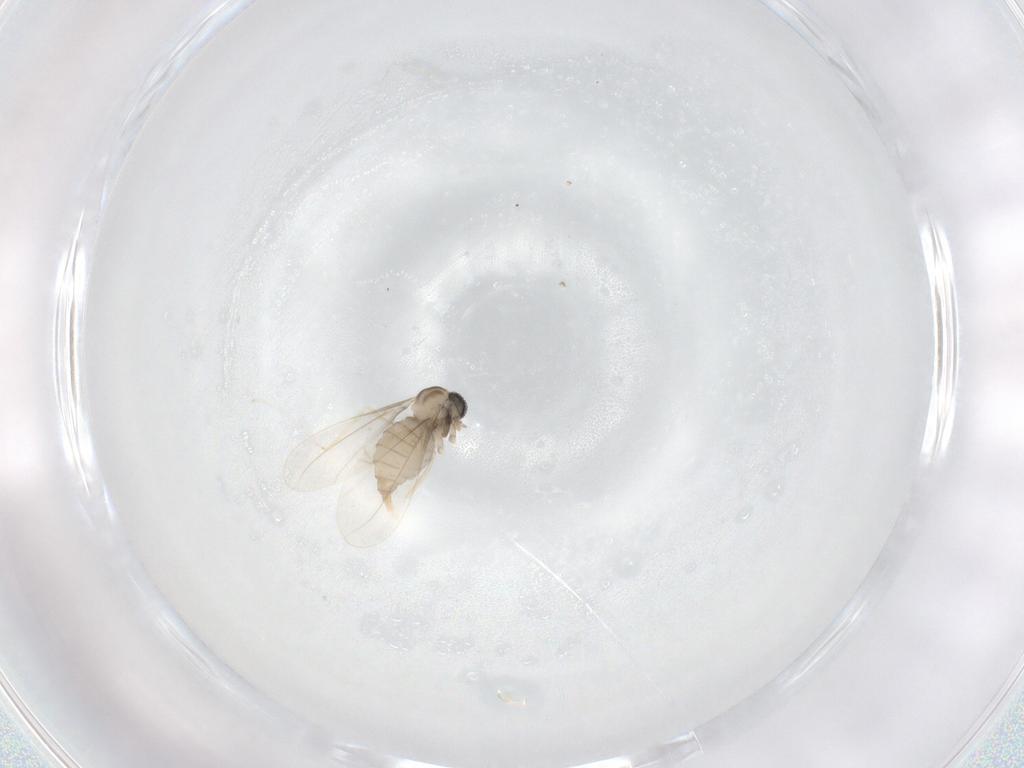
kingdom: Animalia
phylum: Arthropoda
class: Insecta
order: Diptera
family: Cecidomyiidae
